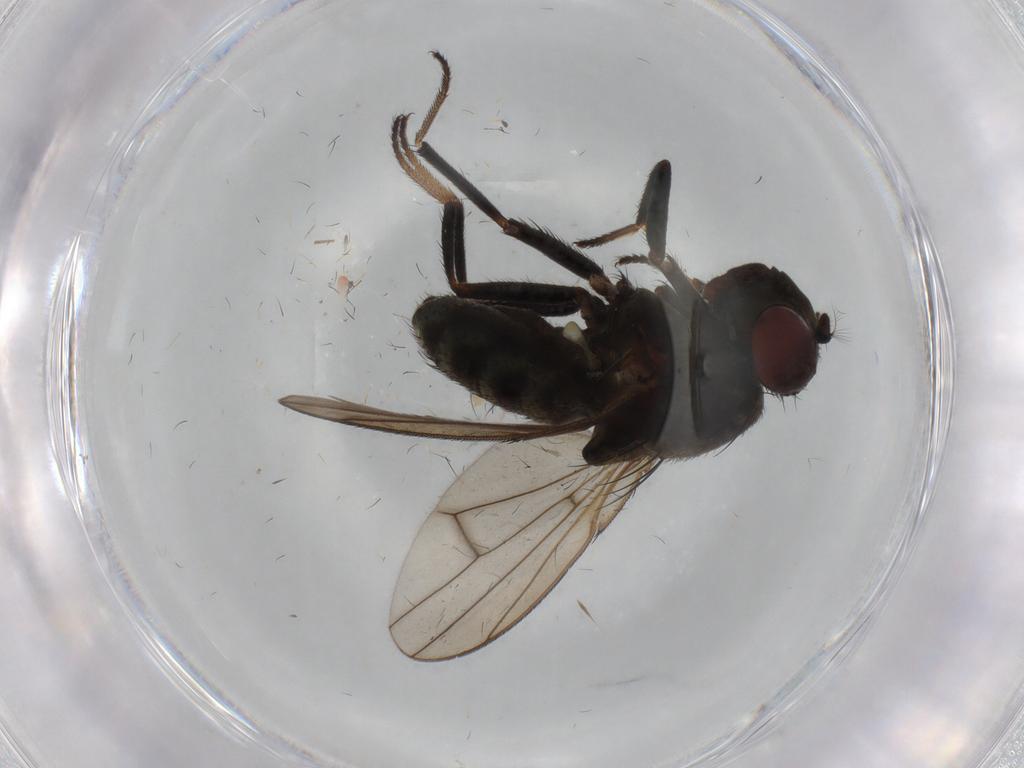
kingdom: Animalia
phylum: Arthropoda
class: Insecta
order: Diptera
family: Ephydridae
